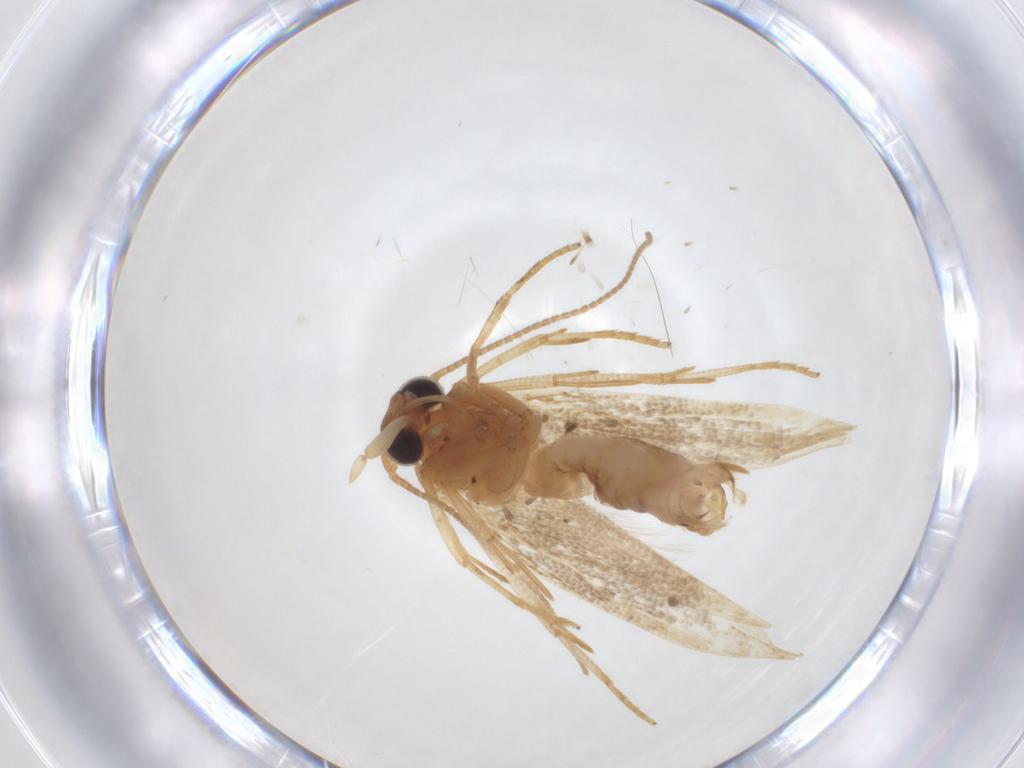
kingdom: Animalia
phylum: Arthropoda
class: Insecta
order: Lepidoptera
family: Blastobasidae
